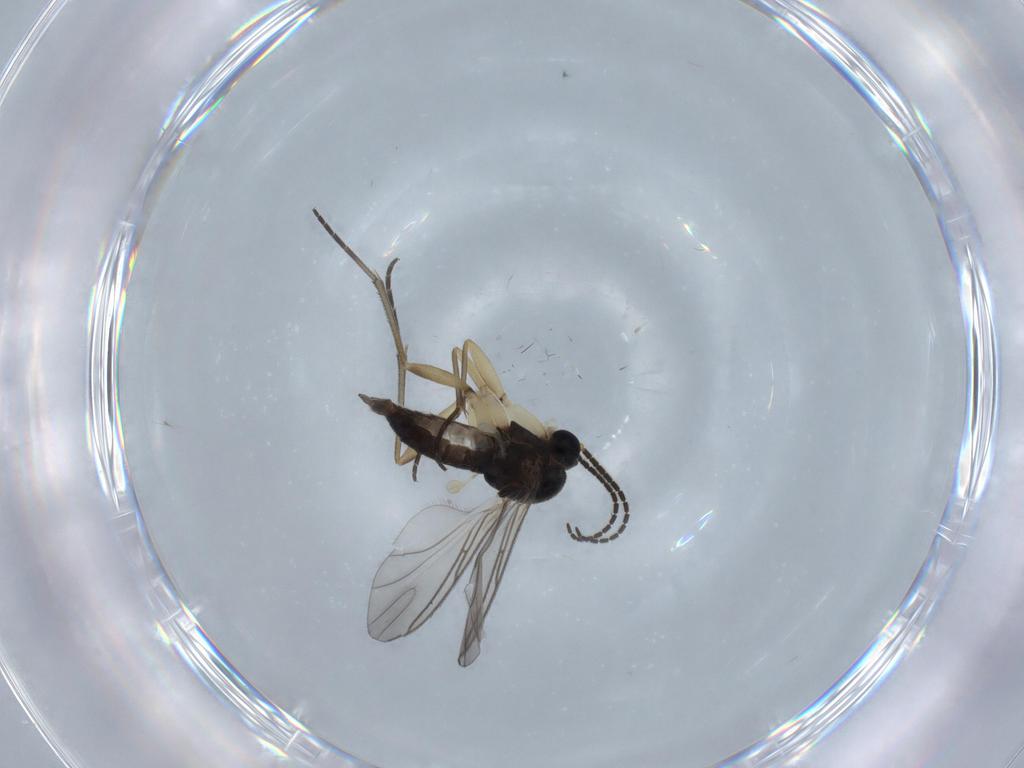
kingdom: Animalia
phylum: Arthropoda
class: Insecta
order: Diptera
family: Sciaridae
